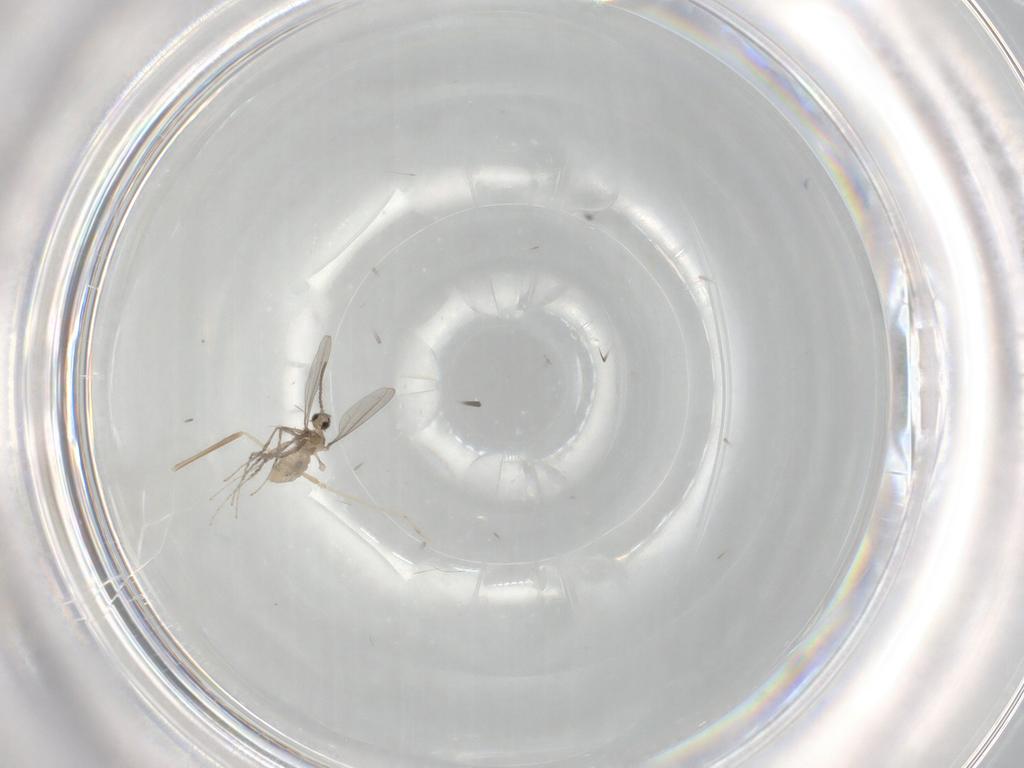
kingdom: Animalia
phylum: Arthropoda
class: Insecta
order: Diptera
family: Cecidomyiidae
